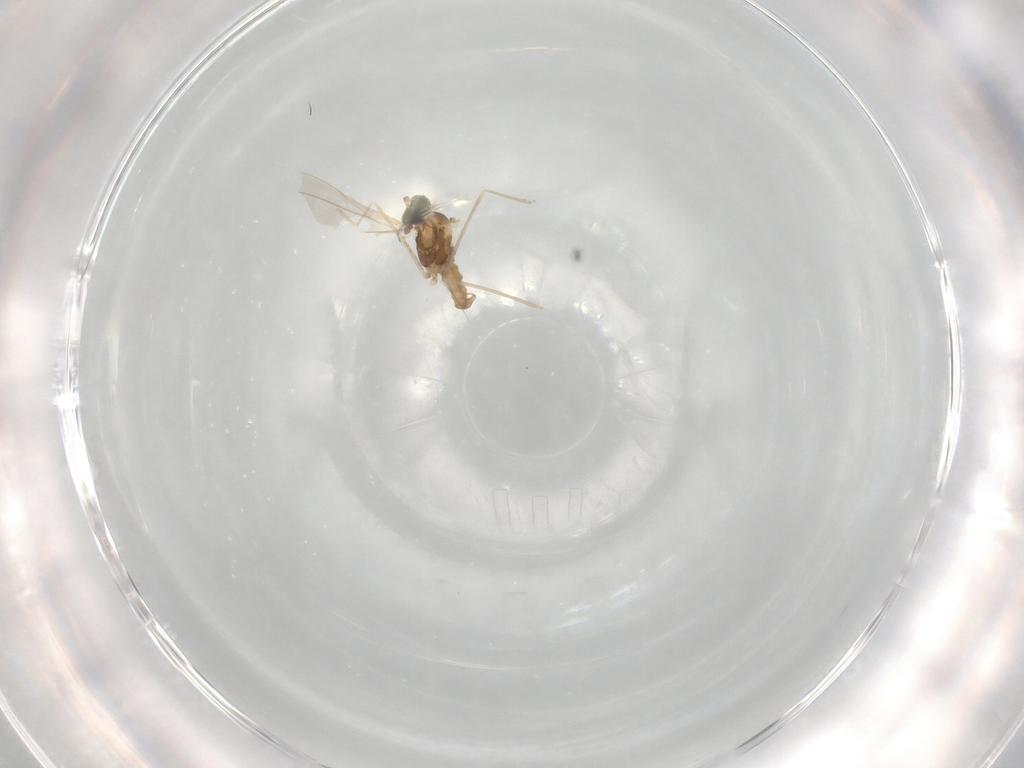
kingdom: Animalia
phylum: Arthropoda
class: Insecta
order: Diptera
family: Cecidomyiidae
